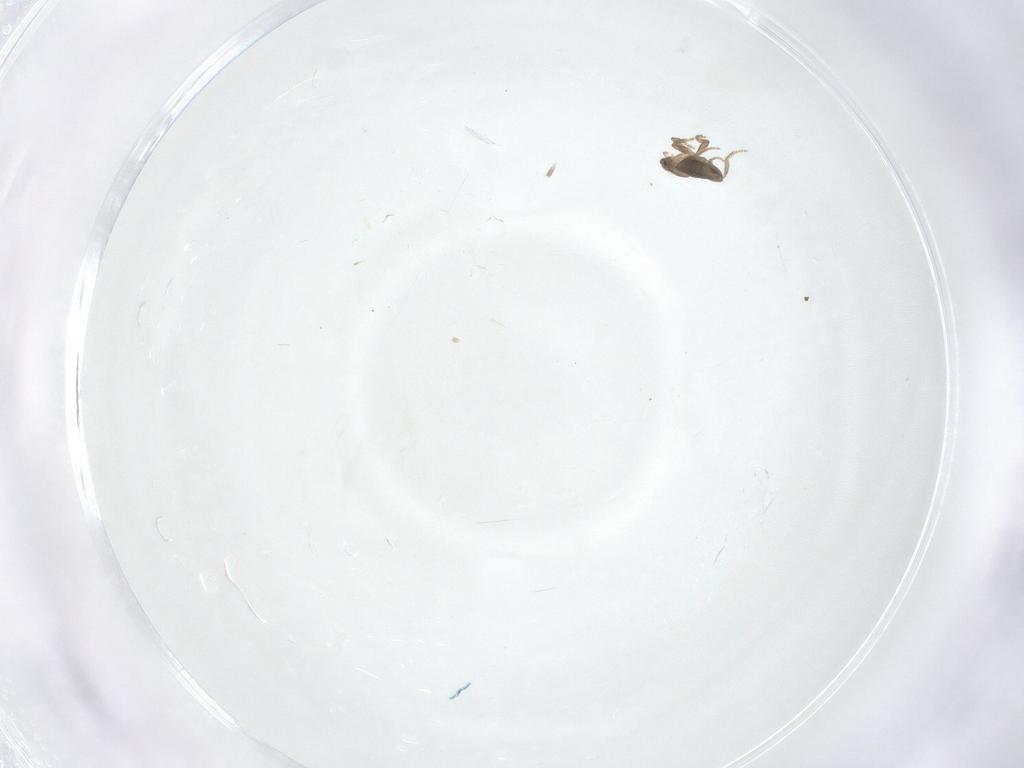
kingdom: Animalia
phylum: Arthropoda
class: Insecta
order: Diptera
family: Phoridae
